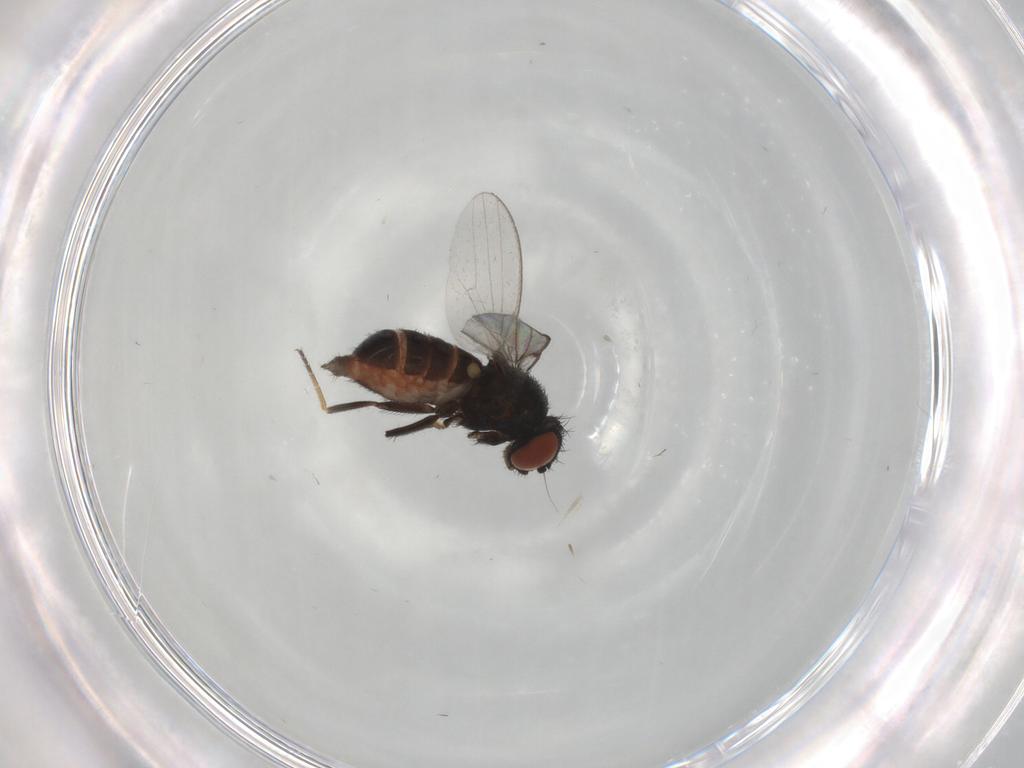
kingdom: Animalia
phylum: Arthropoda
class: Insecta
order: Diptera
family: Milichiidae
